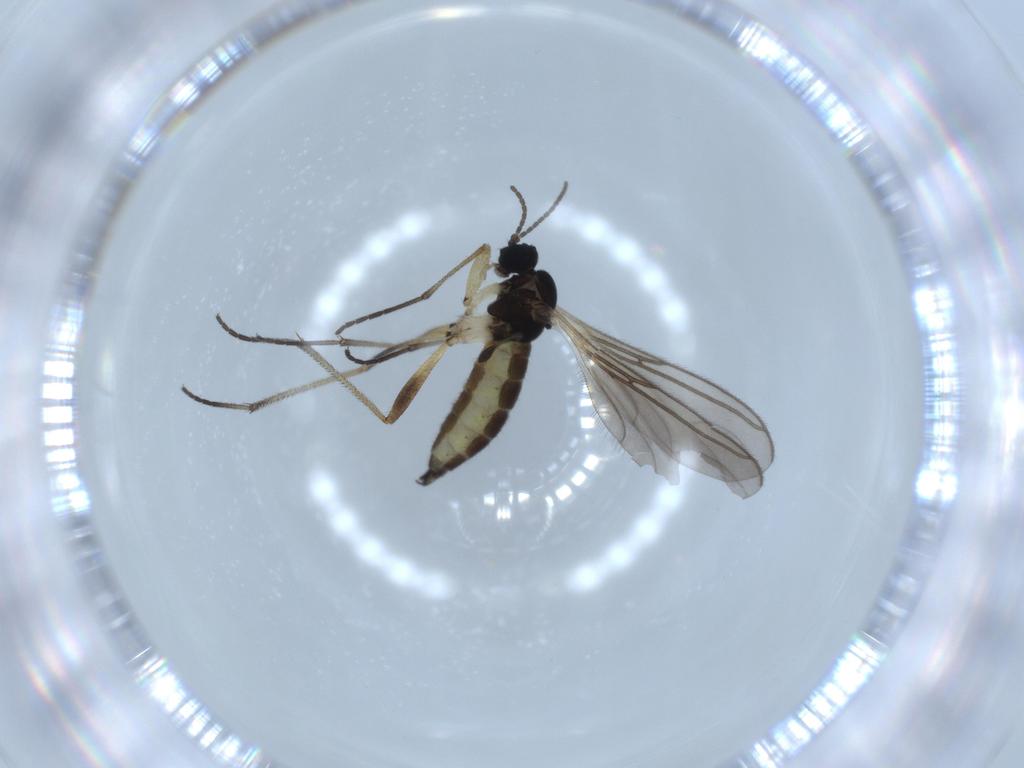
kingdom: Animalia
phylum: Arthropoda
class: Insecta
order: Diptera
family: Sciaridae
